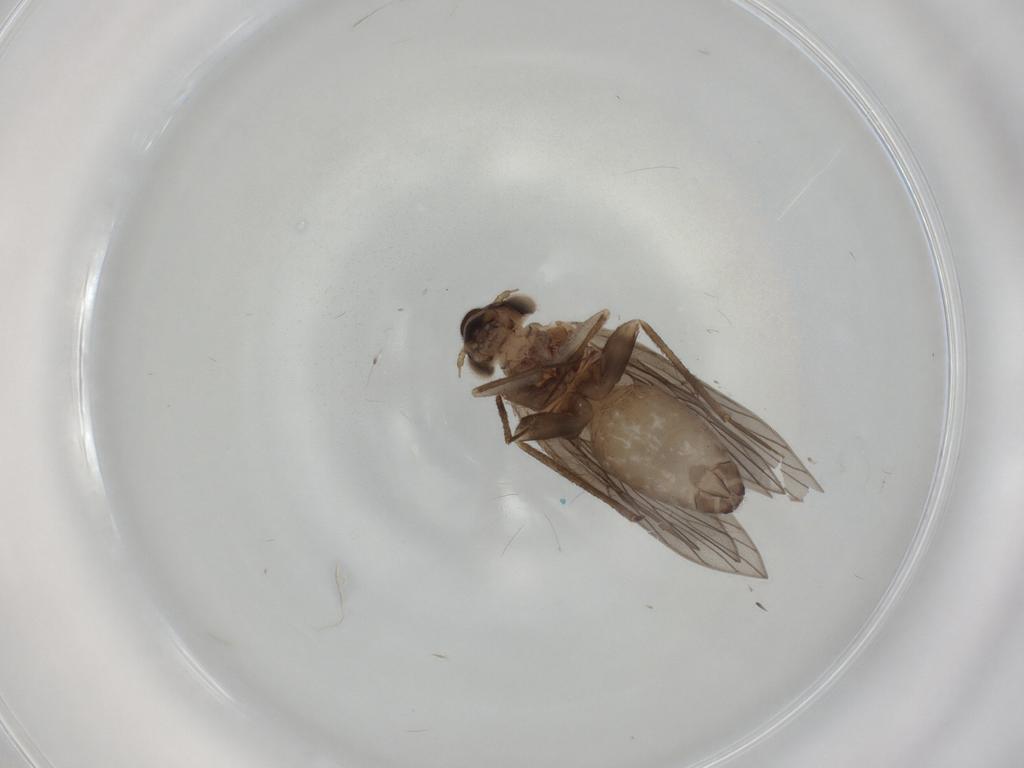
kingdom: Animalia
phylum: Arthropoda
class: Insecta
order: Psocodea
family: Lepidopsocidae
